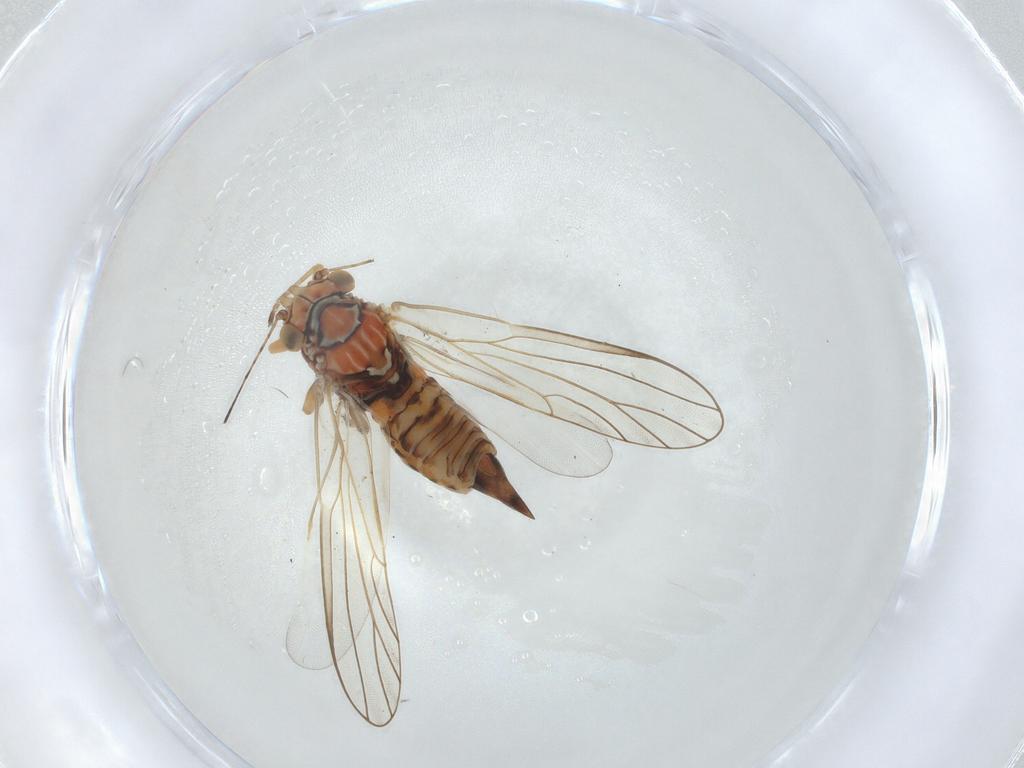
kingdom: Animalia
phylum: Arthropoda
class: Insecta
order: Hemiptera
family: Psyllidae
